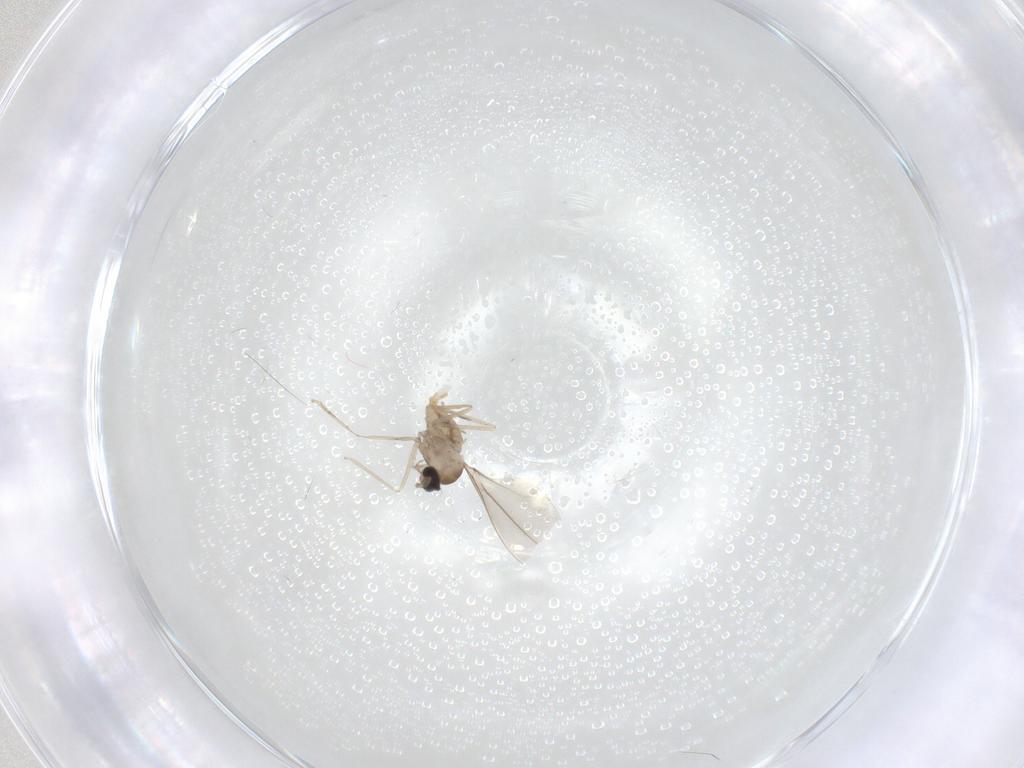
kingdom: Animalia
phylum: Arthropoda
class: Insecta
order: Diptera
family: Cecidomyiidae
